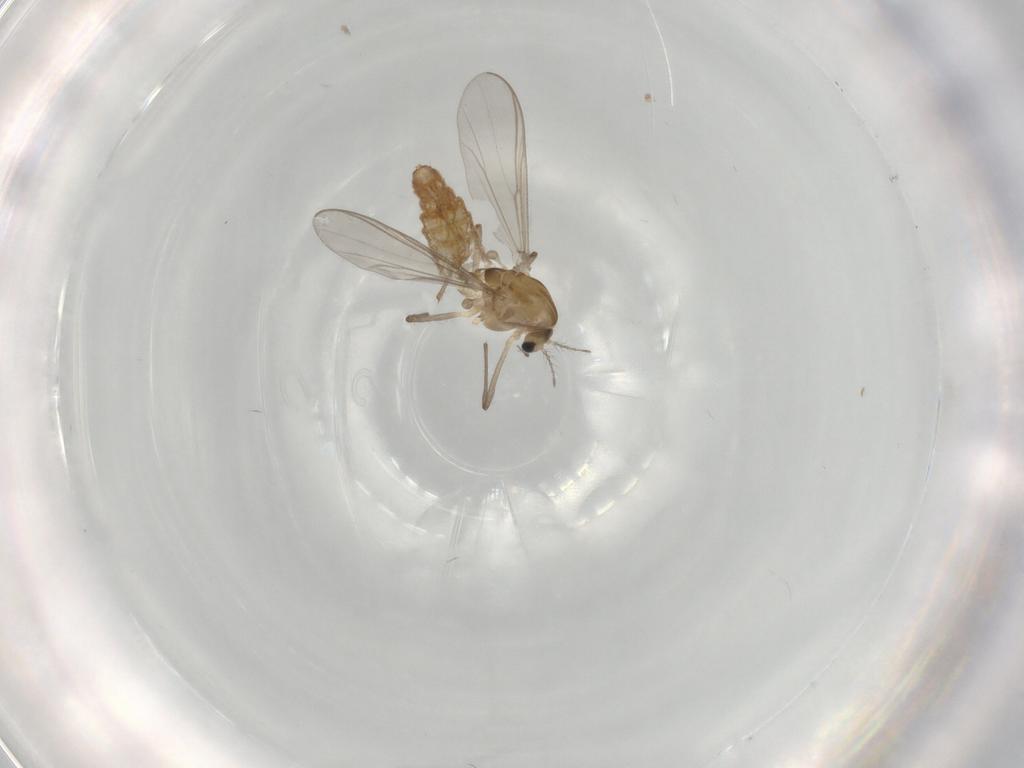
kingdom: Animalia
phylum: Arthropoda
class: Insecta
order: Diptera
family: Chironomidae
